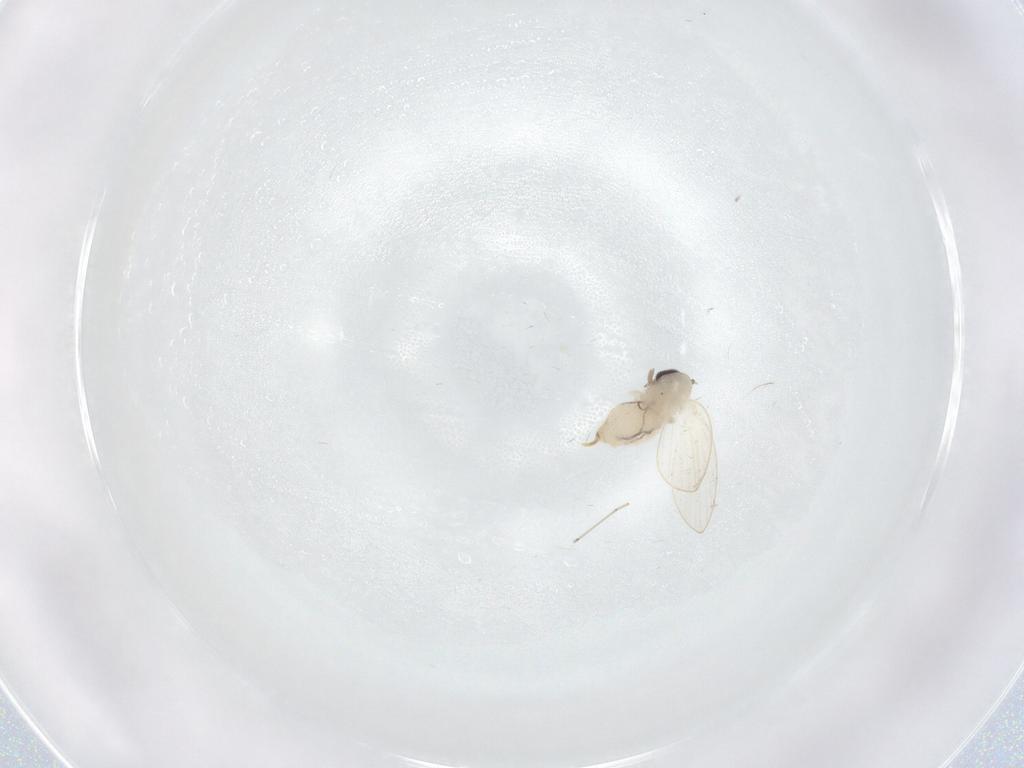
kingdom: Animalia
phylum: Arthropoda
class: Insecta
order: Diptera
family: Psychodidae
